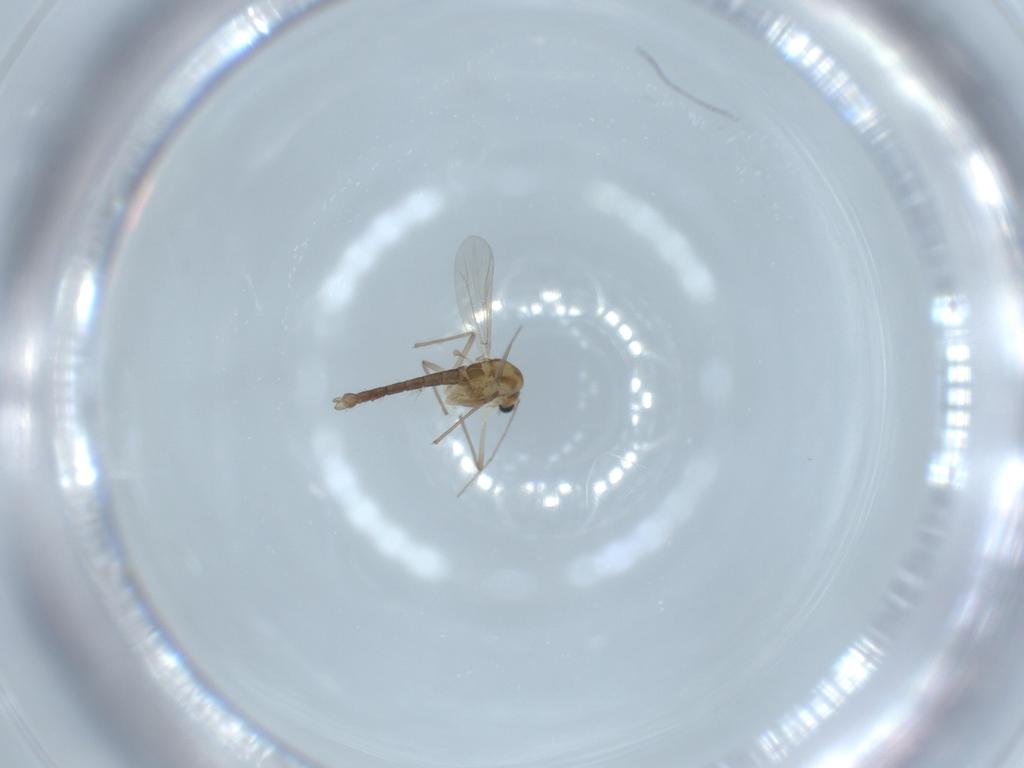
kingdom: Animalia
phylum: Arthropoda
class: Insecta
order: Diptera
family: Chironomidae
